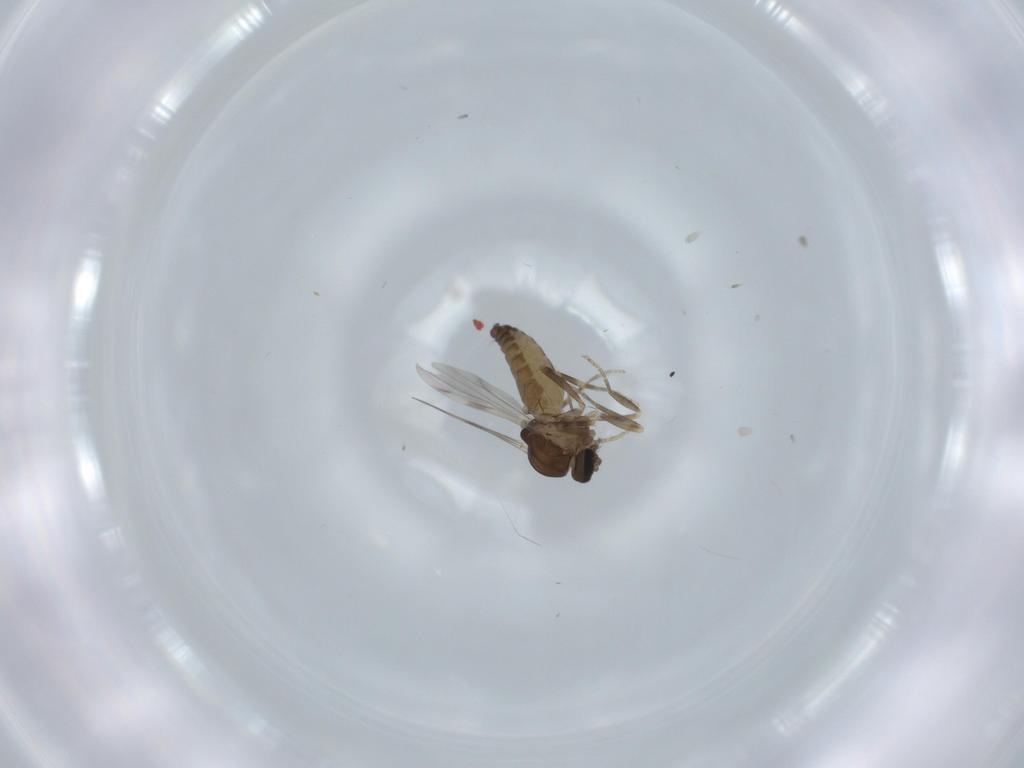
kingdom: Animalia
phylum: Arthropoda
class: Insecta
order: Diptera
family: Ceratopogonidae
